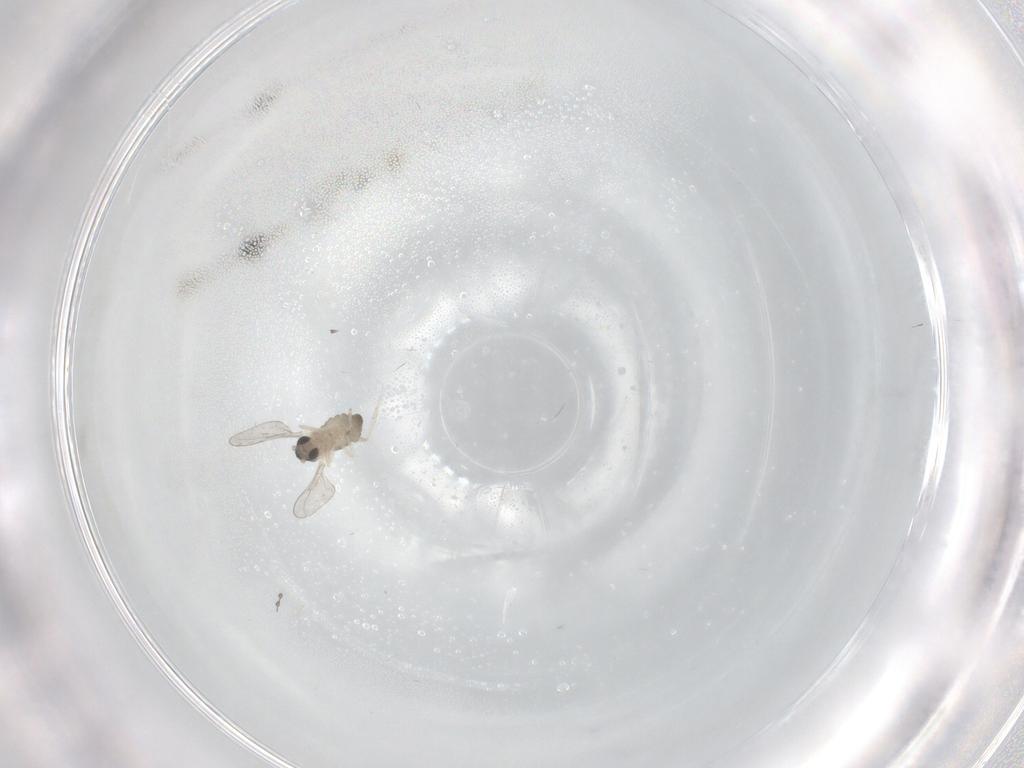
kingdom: Animalia
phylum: Arthropoda
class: Insecta
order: Diptera
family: Cecidomyiidae
